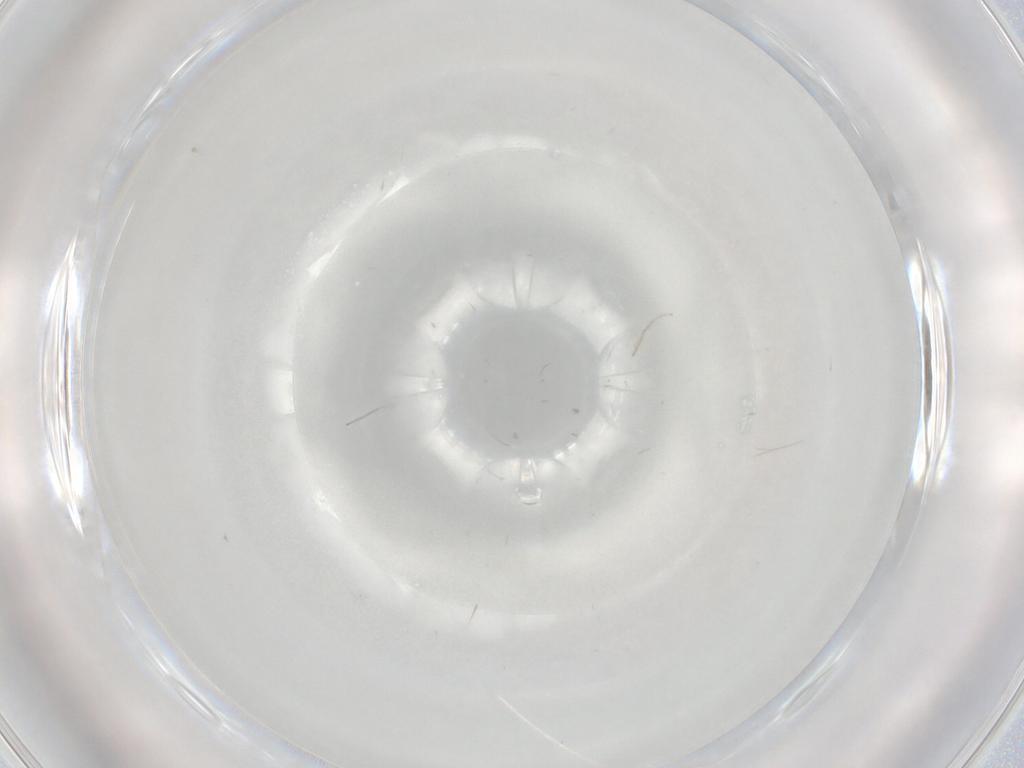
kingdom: Animalia
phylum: Arthropoda
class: Insecta
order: Diptera
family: Cecidomyiidae
